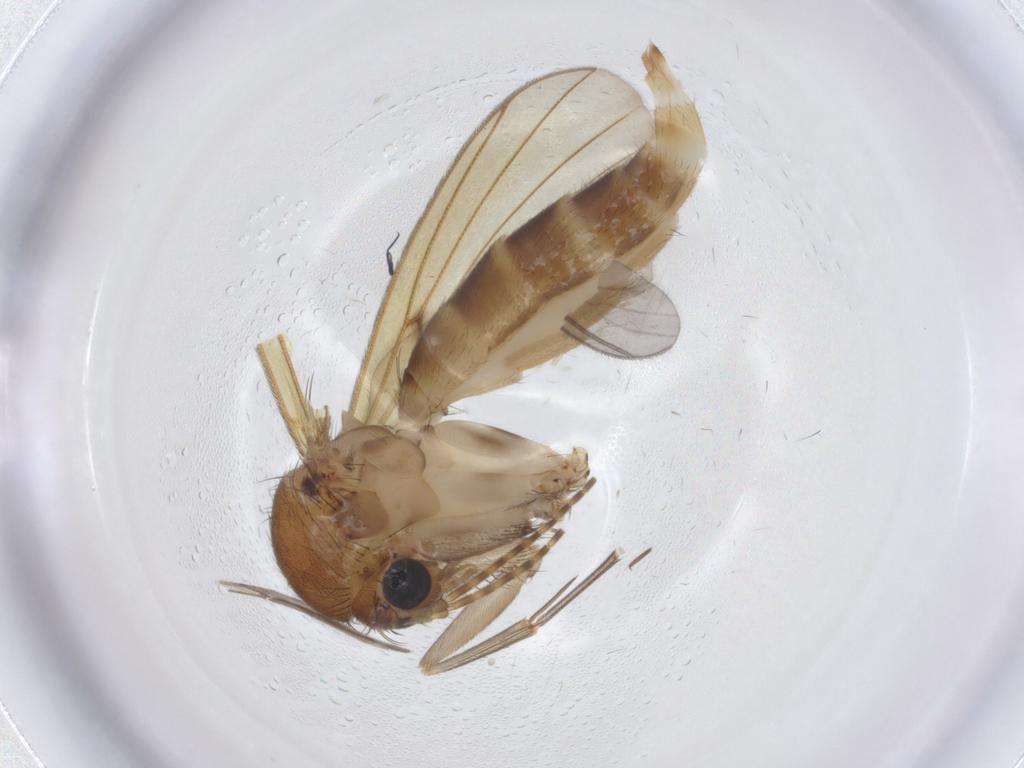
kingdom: Animalia
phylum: Arthropoda
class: Insecta
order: Diptera
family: Mycetophilidae
